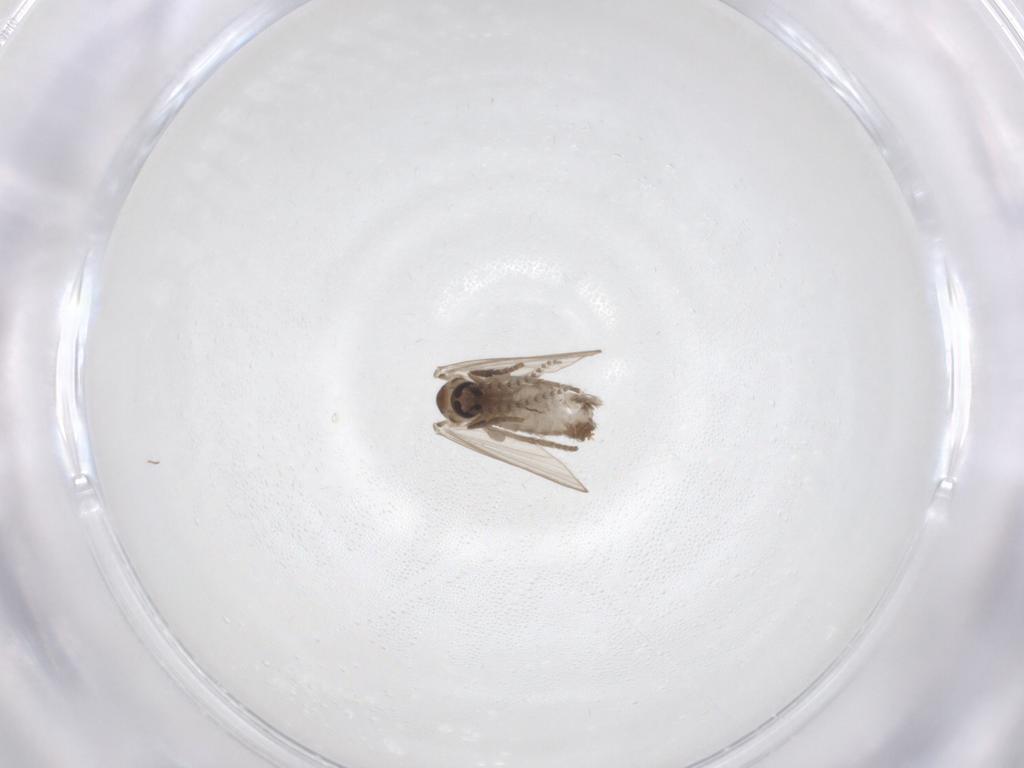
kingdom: Animalia
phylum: Arthropoda
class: Insecta
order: Diptera
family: Psychodidae
